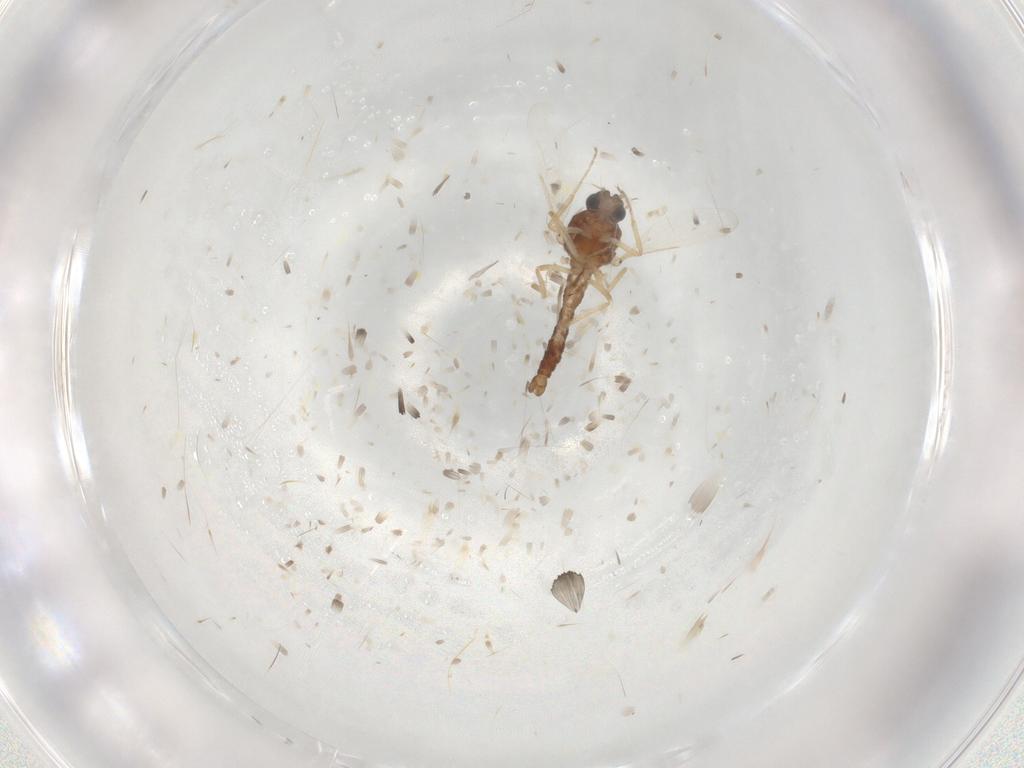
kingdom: Animalia
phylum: Arthropoda
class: Insecta
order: Diptera
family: Ceratopogonidae
